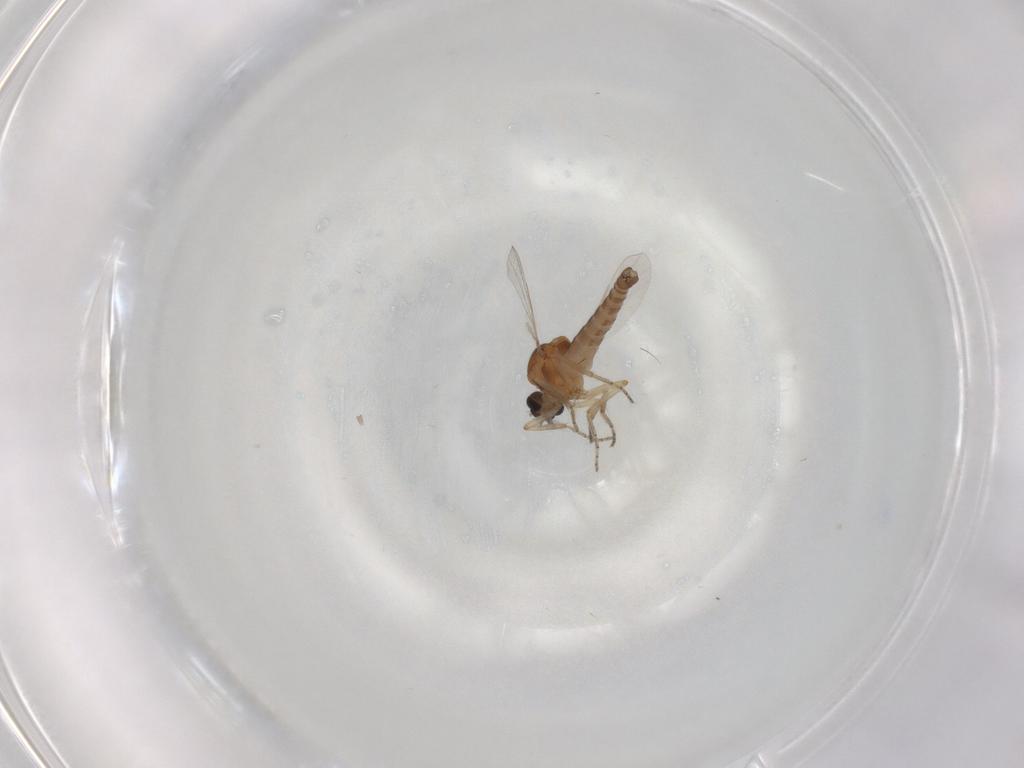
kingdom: Animalia
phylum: Arthropoda
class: Insecta
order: Diptera
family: Ceratopogonidae
